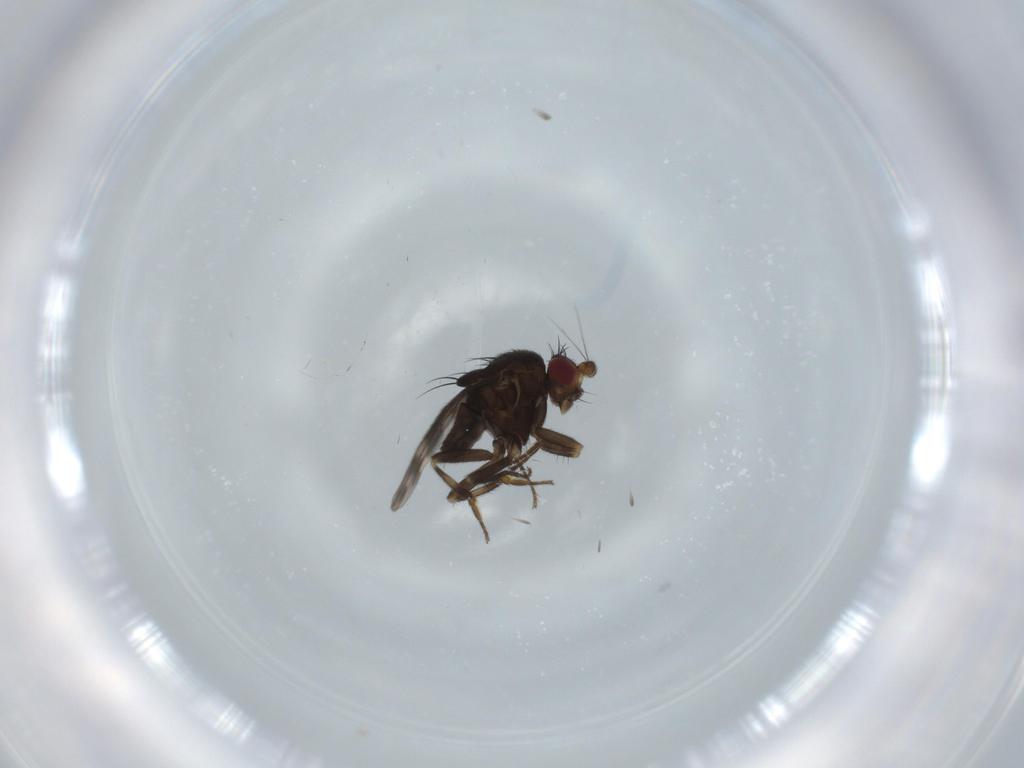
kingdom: Animalia
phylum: Arthropoda
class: Insecta
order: Diptera
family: Sphaeroceridae
